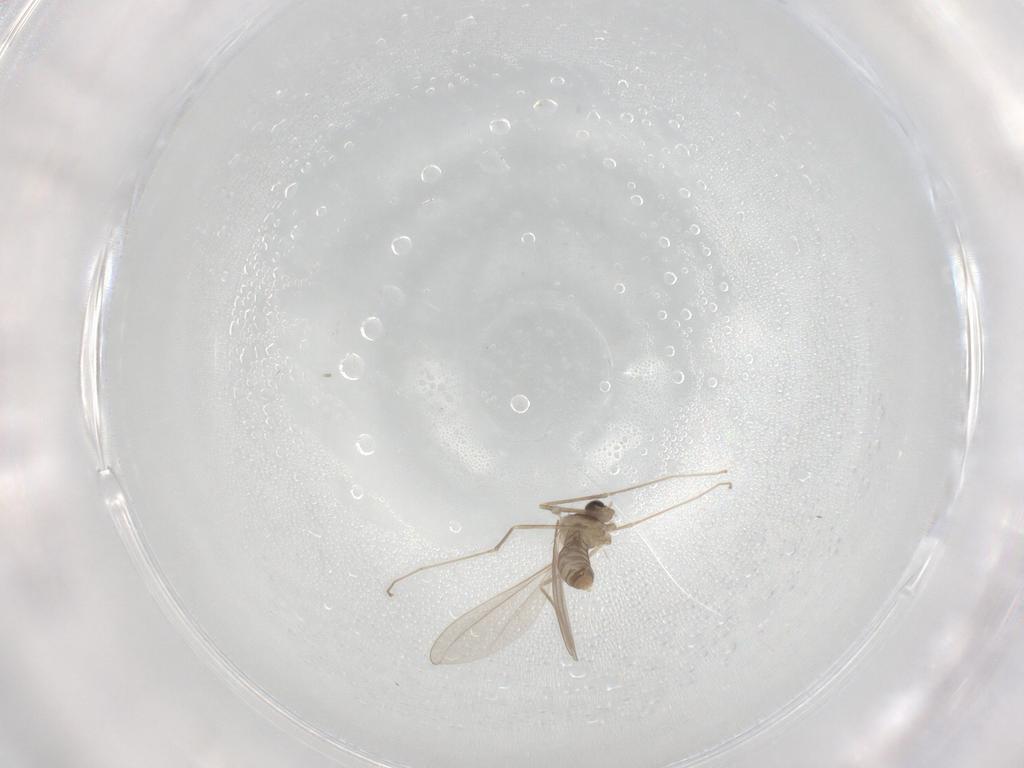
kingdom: Animalia
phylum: Arthropoda
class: Insecta
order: Diptera
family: Cecidomyiidae
